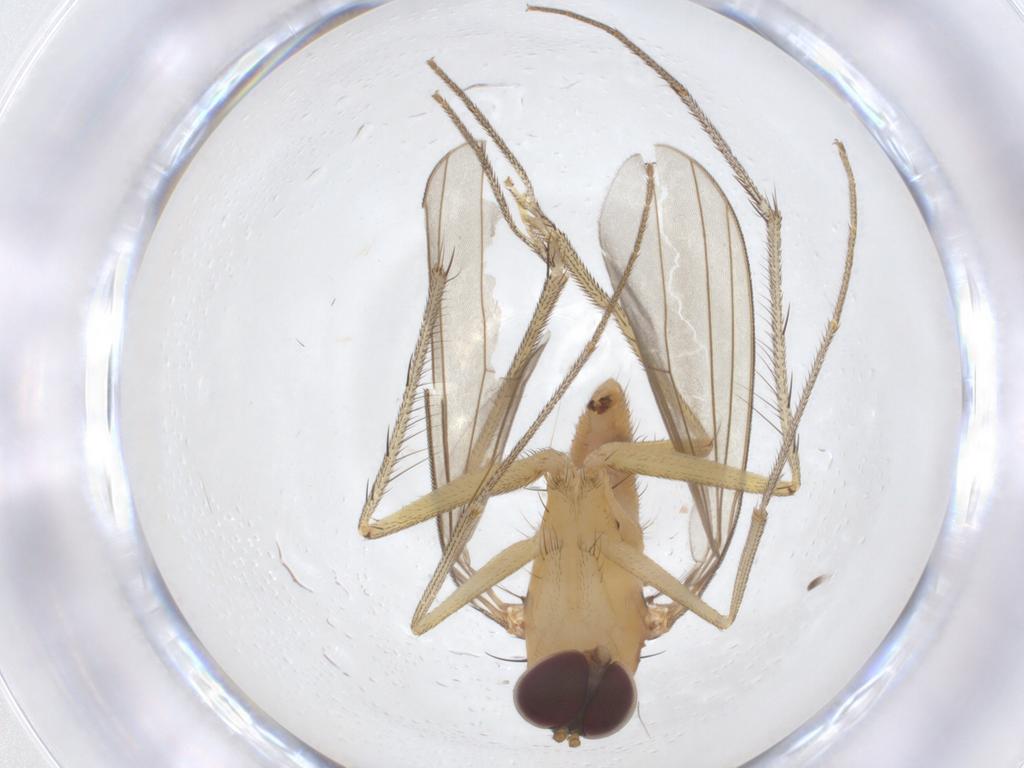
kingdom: Animalia
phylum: Arthropoda
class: Insecta
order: Diptera
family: Dolichopodidae
